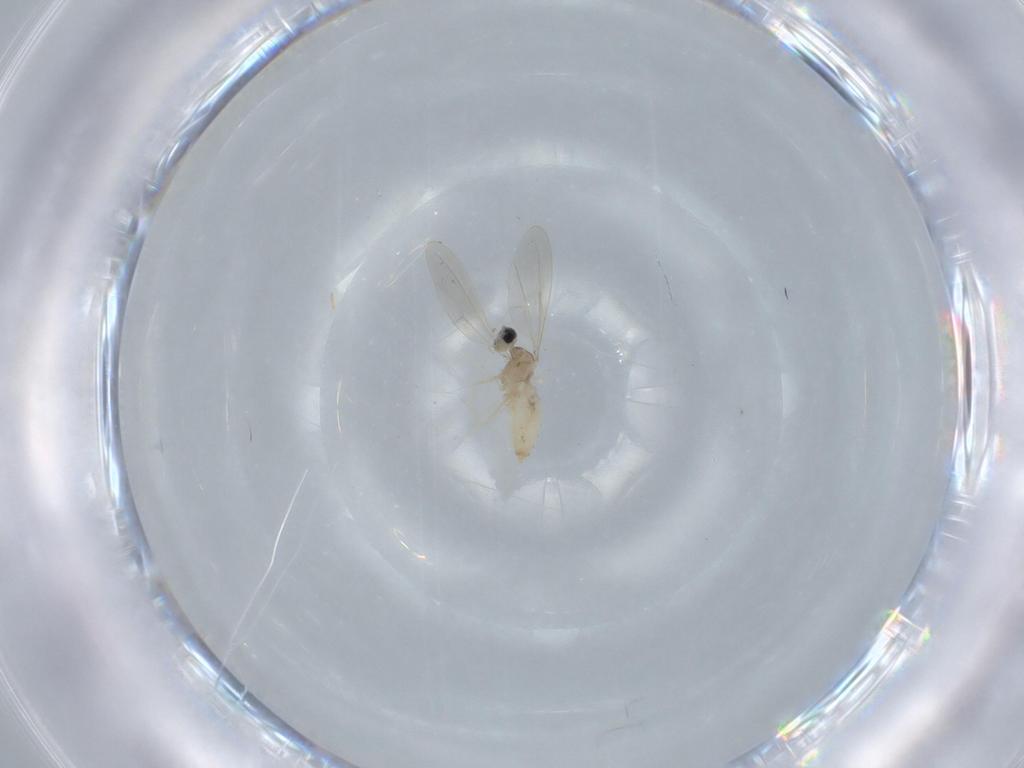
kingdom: Animalia
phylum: Arthropoda
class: Insecta
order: Diptera
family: Cecidomyiidae
